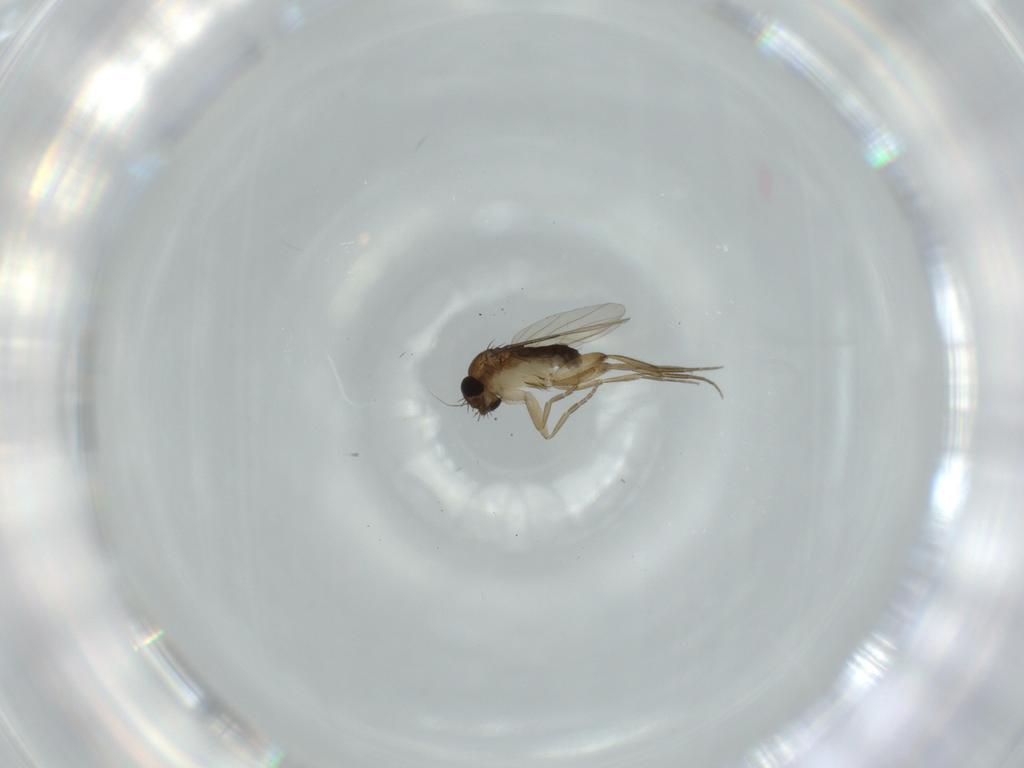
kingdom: Animalia
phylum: Arthropoda
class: Insecta
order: Diptera
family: Phoridae
